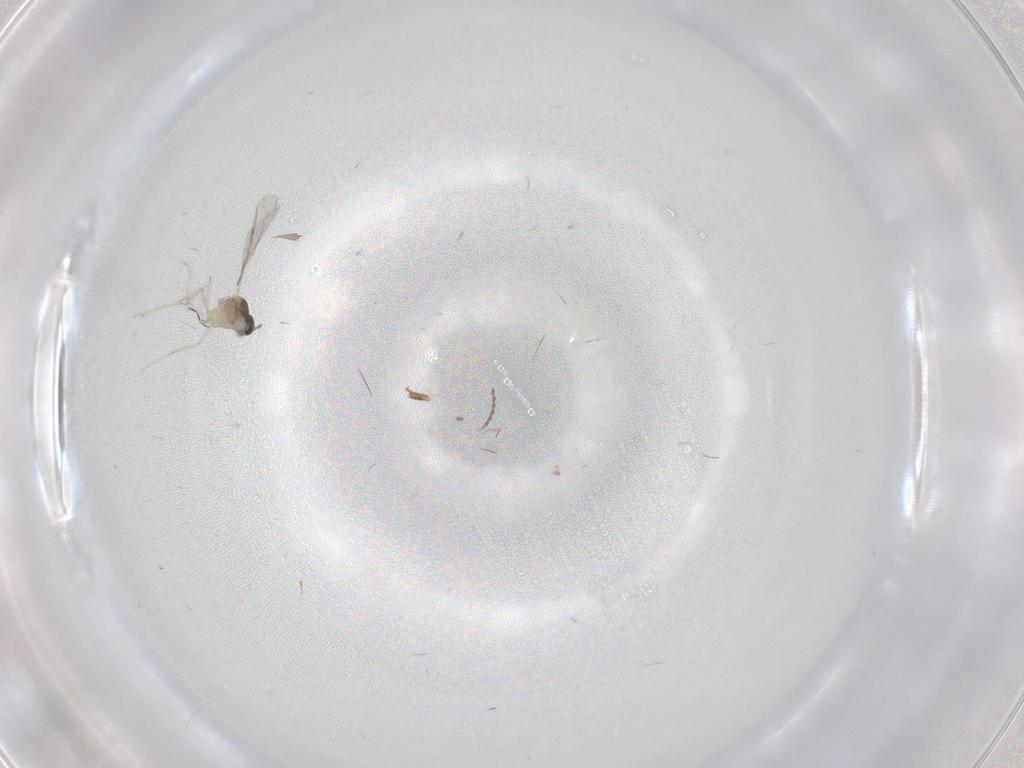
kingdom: Animalia
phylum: Arthropoda
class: Insecta
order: Diptera
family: Cecidomyiidae
